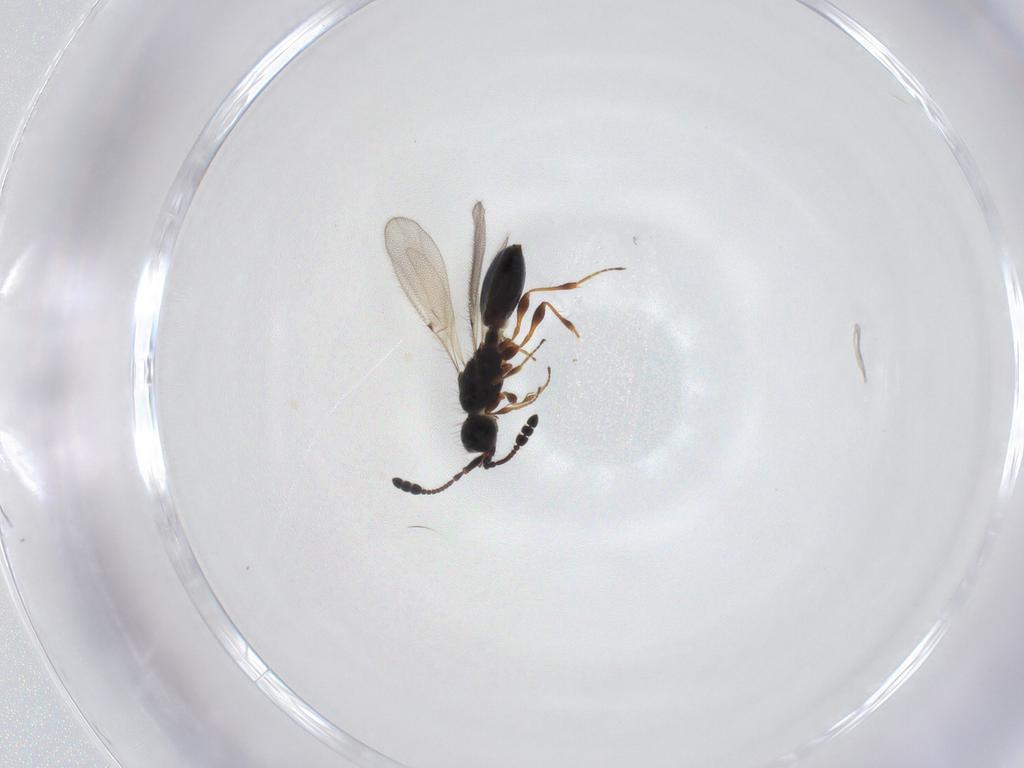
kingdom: Animalia
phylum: Arthropoda
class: Insecta
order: Hymenoptera
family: Diapriidae
